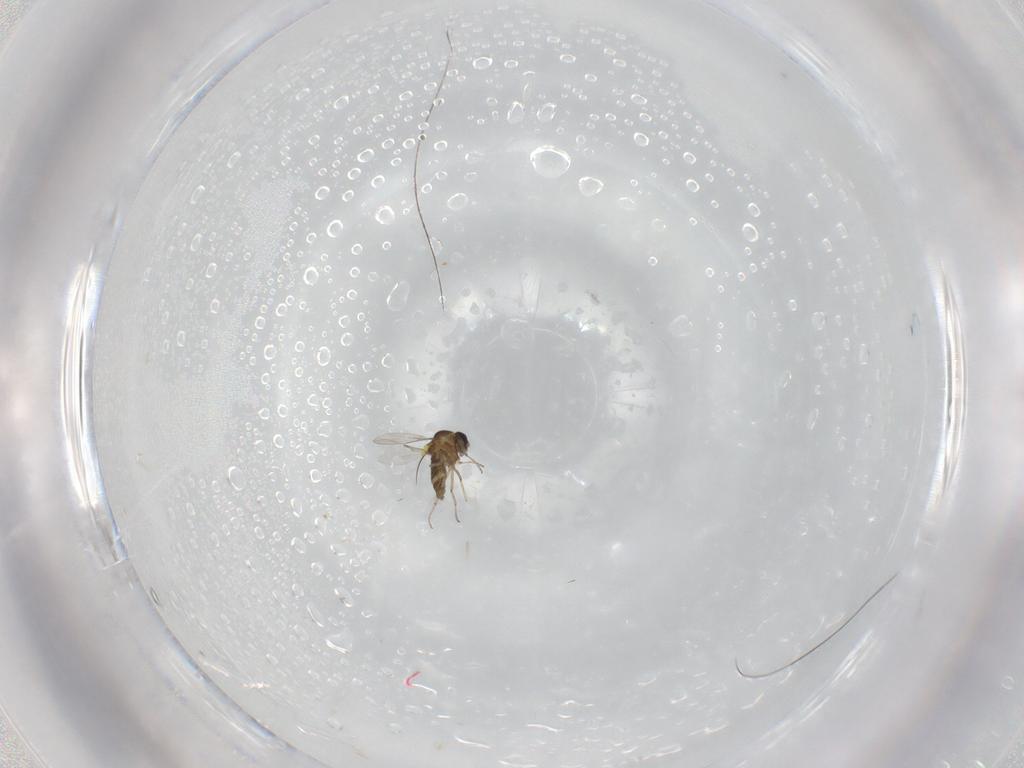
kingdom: Animalia
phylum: Arthropoda
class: Insecta
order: Diptera
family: Ceratopogonidae
